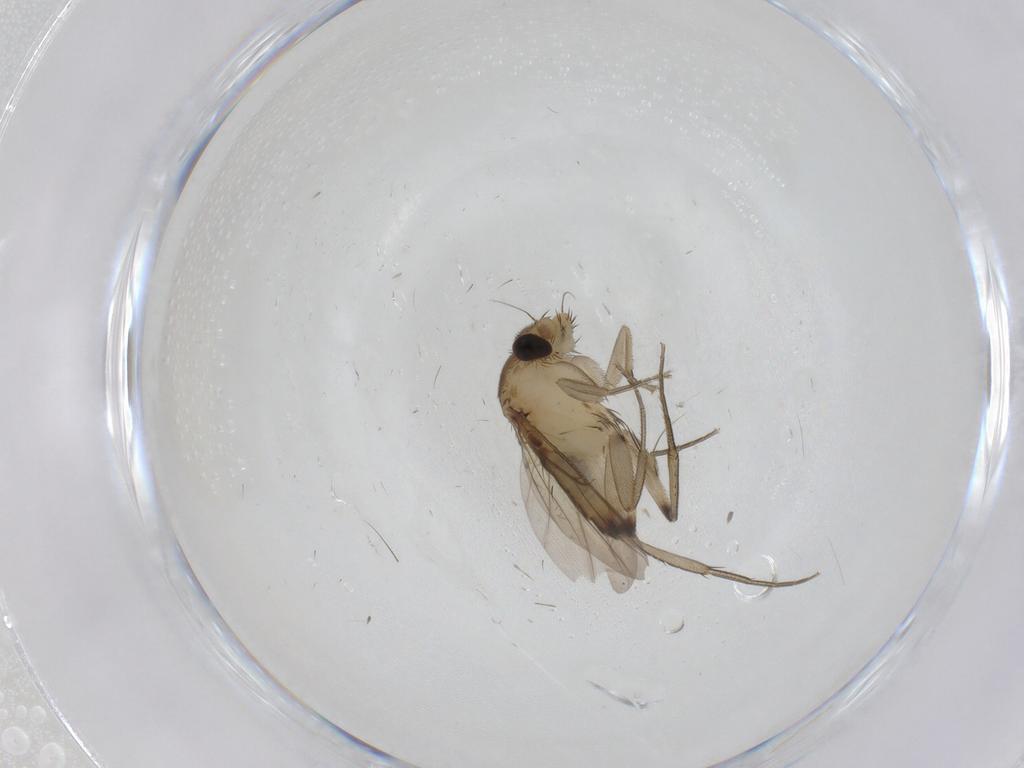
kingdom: Animalia
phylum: Arthropoda
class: Insecta
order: Diptera
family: Phoridae
